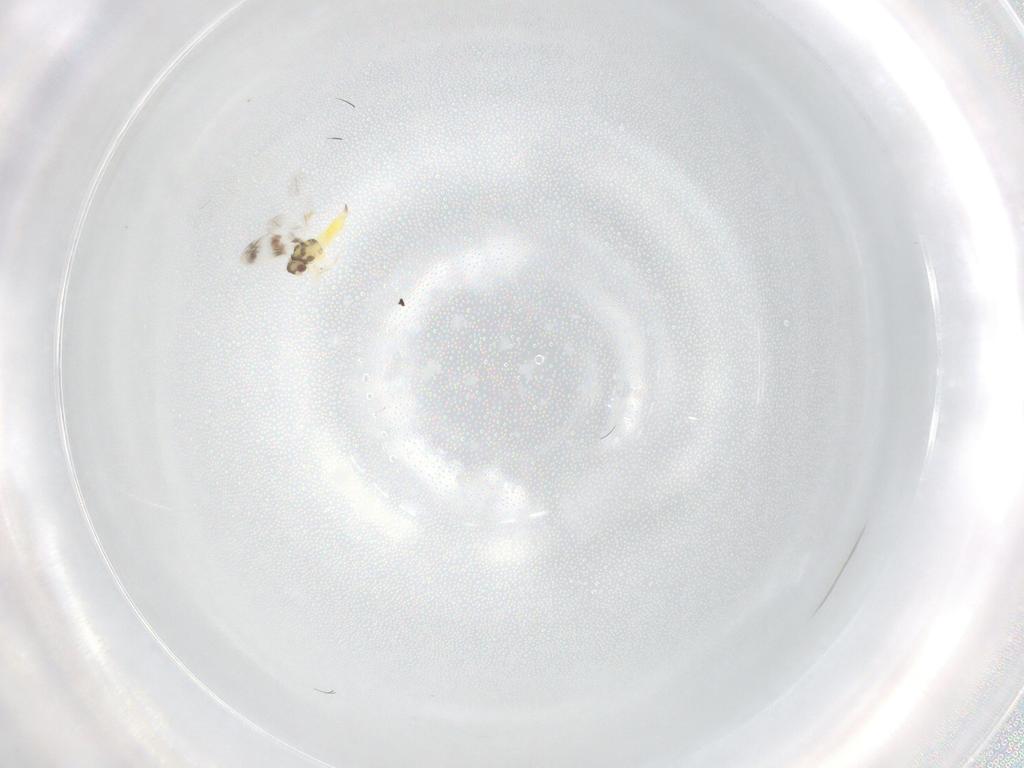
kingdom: Animalia
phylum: Arthropoda
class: Insecta
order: Hemiptera
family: Aleyrodidae
